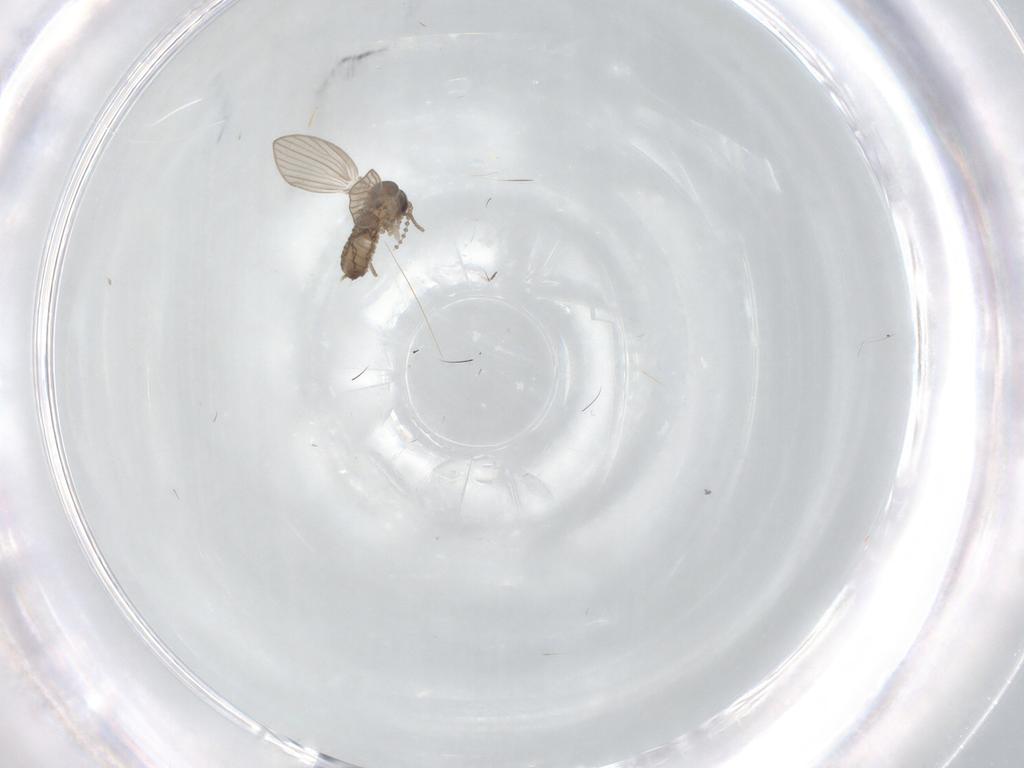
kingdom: Animalia
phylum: Arthropoda
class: Insecta
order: Diptera
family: Psychodidae
